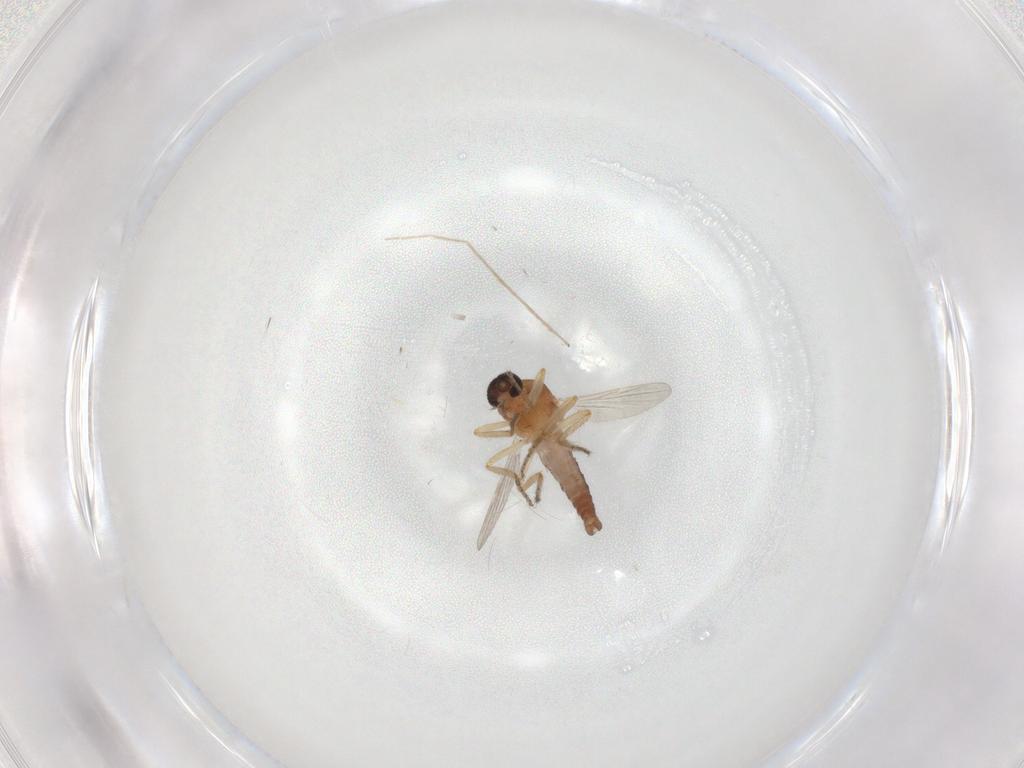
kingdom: Animalia
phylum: Arthropoda
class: Insecta
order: Diptera
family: Ceratopogonidae
